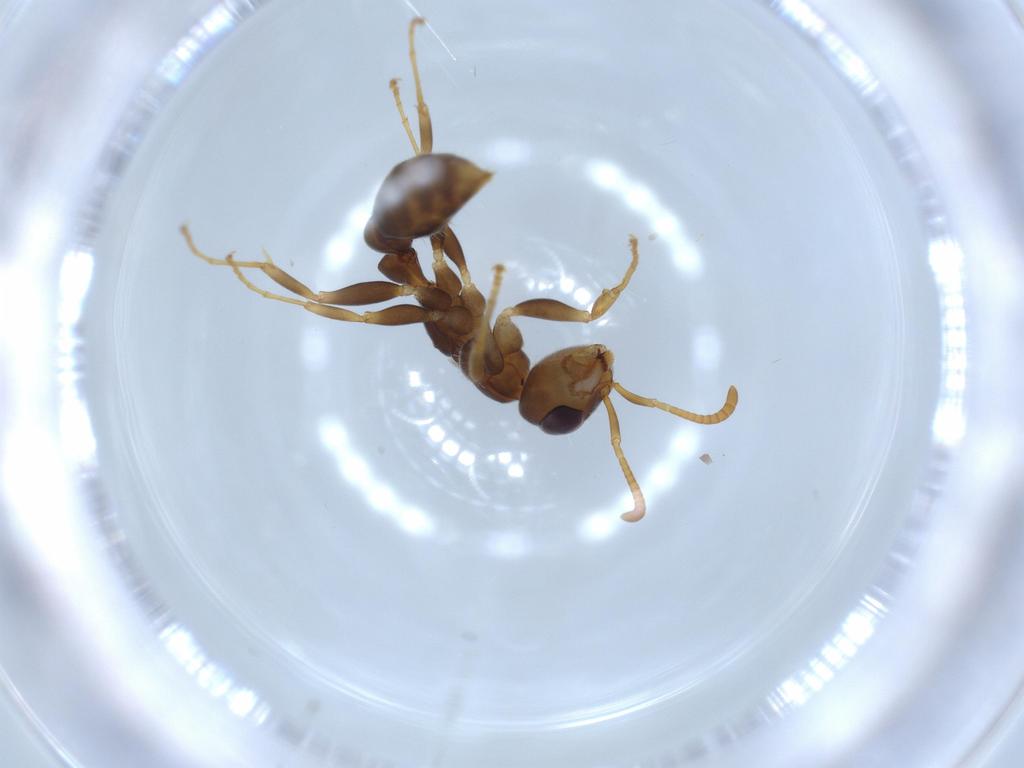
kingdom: Animalia
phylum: Arthropoda
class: Insecta
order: Hymenoptera
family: Formicidae
